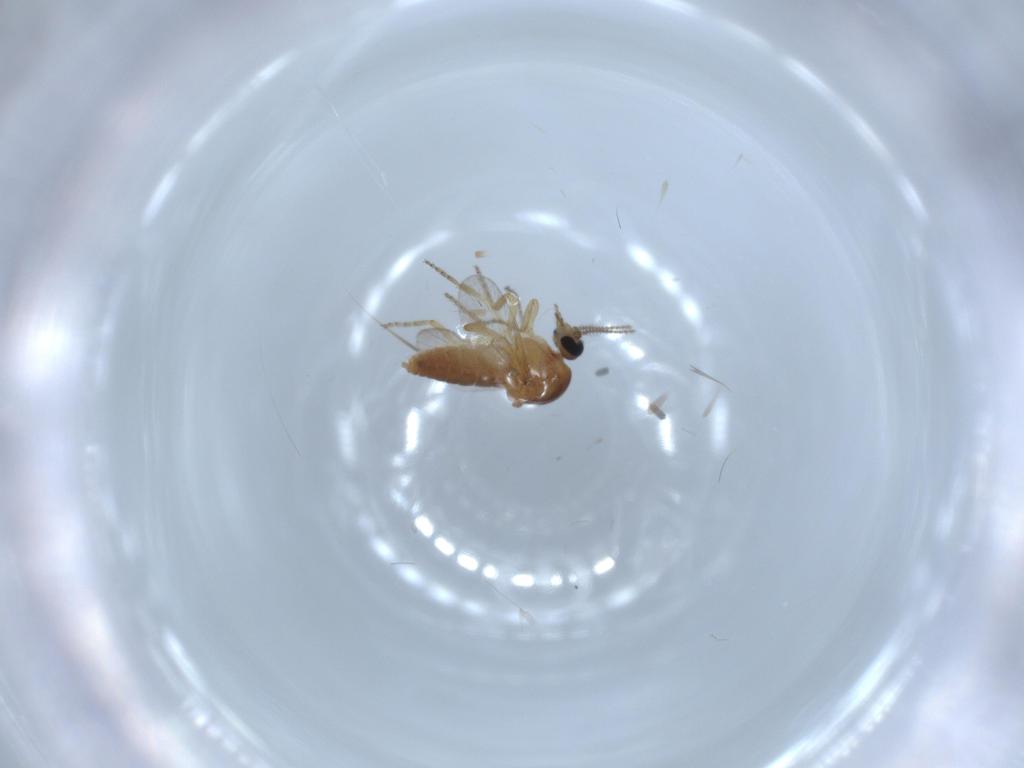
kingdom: Animalia
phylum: Arthropoda
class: Insecta
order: Diptera
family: Ceratopogonidae
